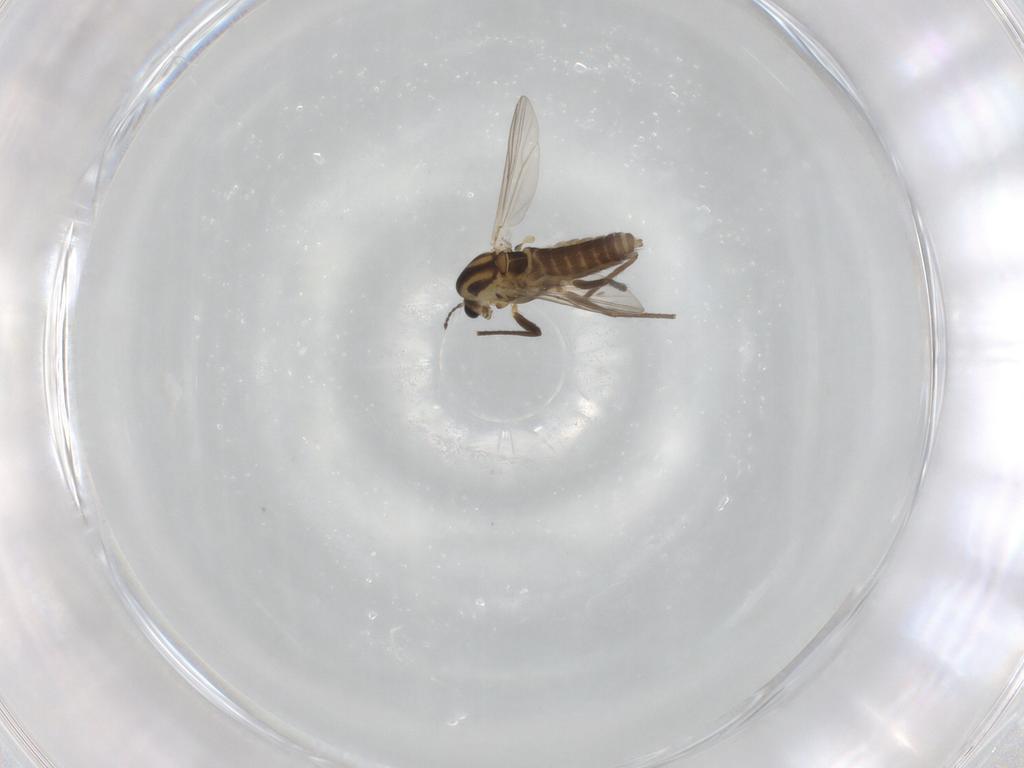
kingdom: Animalia
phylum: Arthropoda
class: Insecta
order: Diptera
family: Chironomidae
